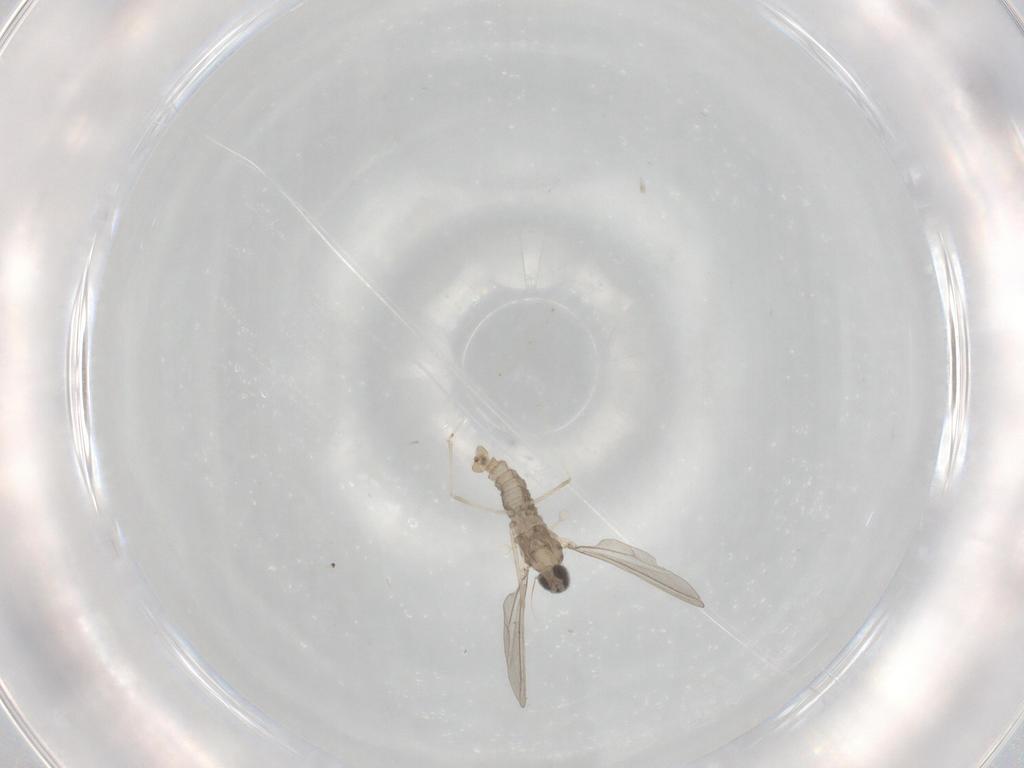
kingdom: Animalia
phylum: Arthropoda
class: Insecta
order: Diptera
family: Cecidomyiidae
